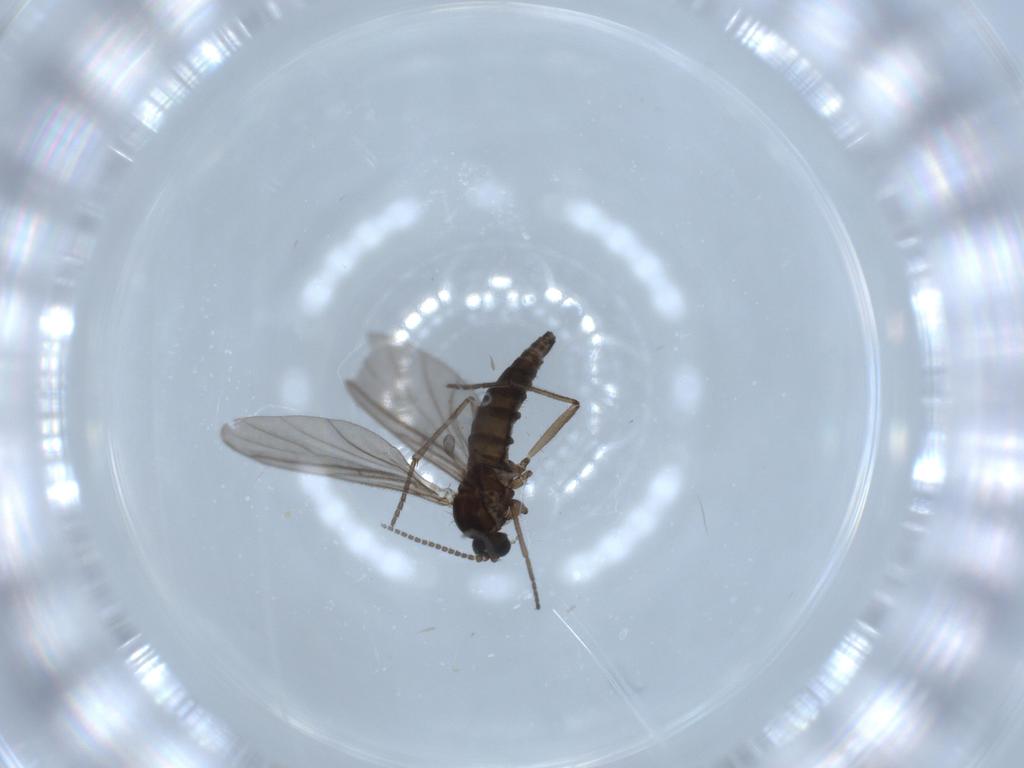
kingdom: Animalia
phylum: Arthropoda
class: Insecta
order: Diptera
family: Sciaridae
